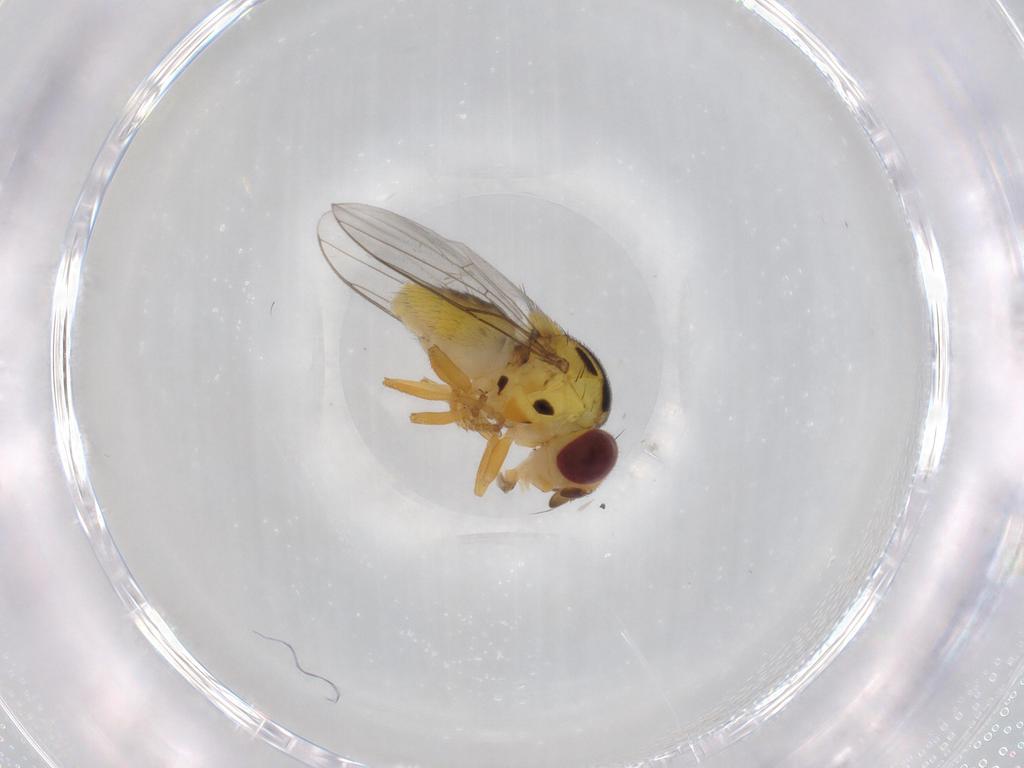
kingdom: Animalia
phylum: Arthropoda
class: Insecta
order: Diptera
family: Chloropidae
